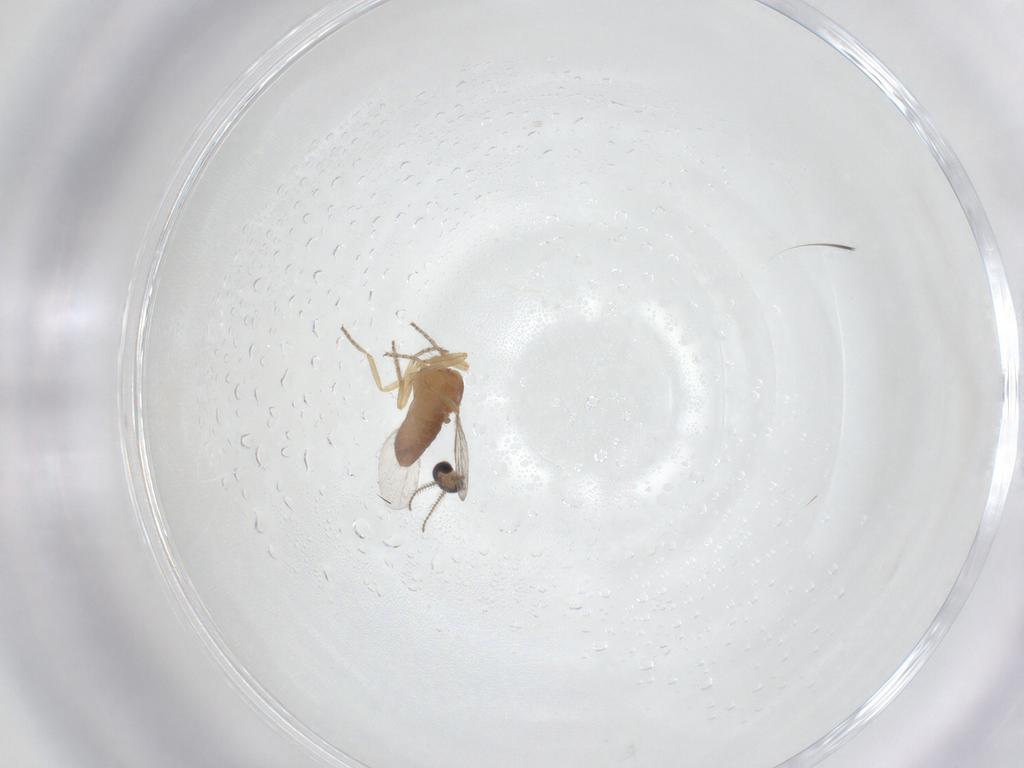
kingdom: Animalia
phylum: Arthropoda
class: Insecta
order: Diptera
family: Ceratopogonidae
